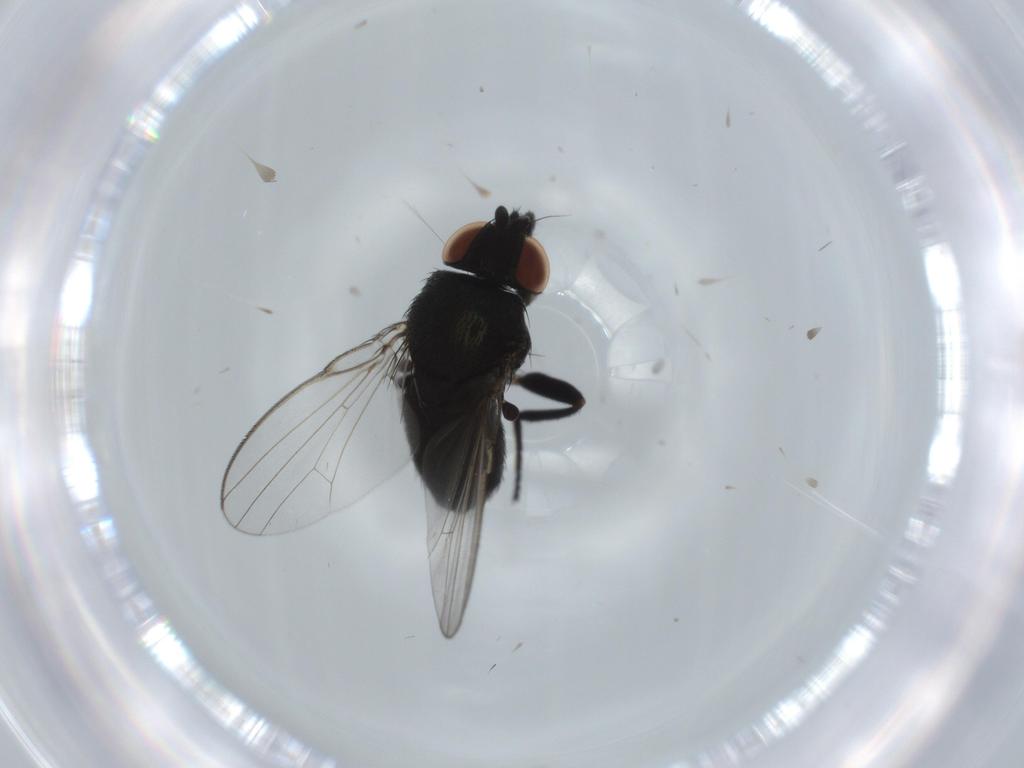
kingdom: Animalia
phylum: Arthropoda
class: Insecta
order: Diptera
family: Milichiidae
